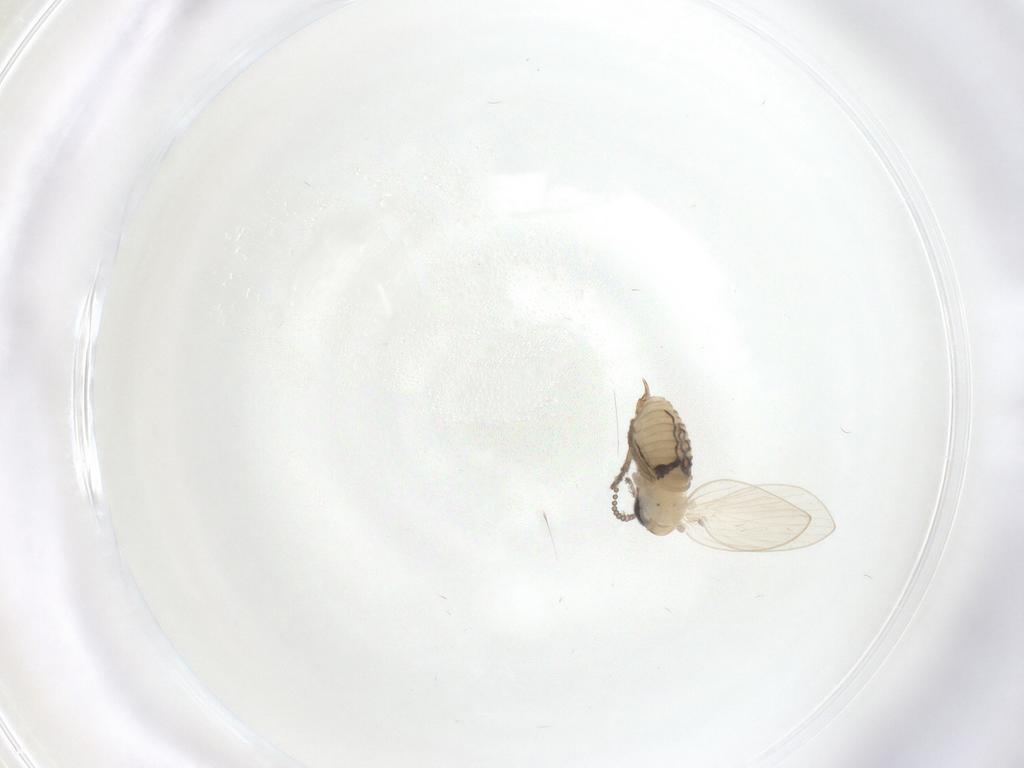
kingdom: Animalia
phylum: Arthropoda
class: Insecta
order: Diptera
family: Psychodidae
